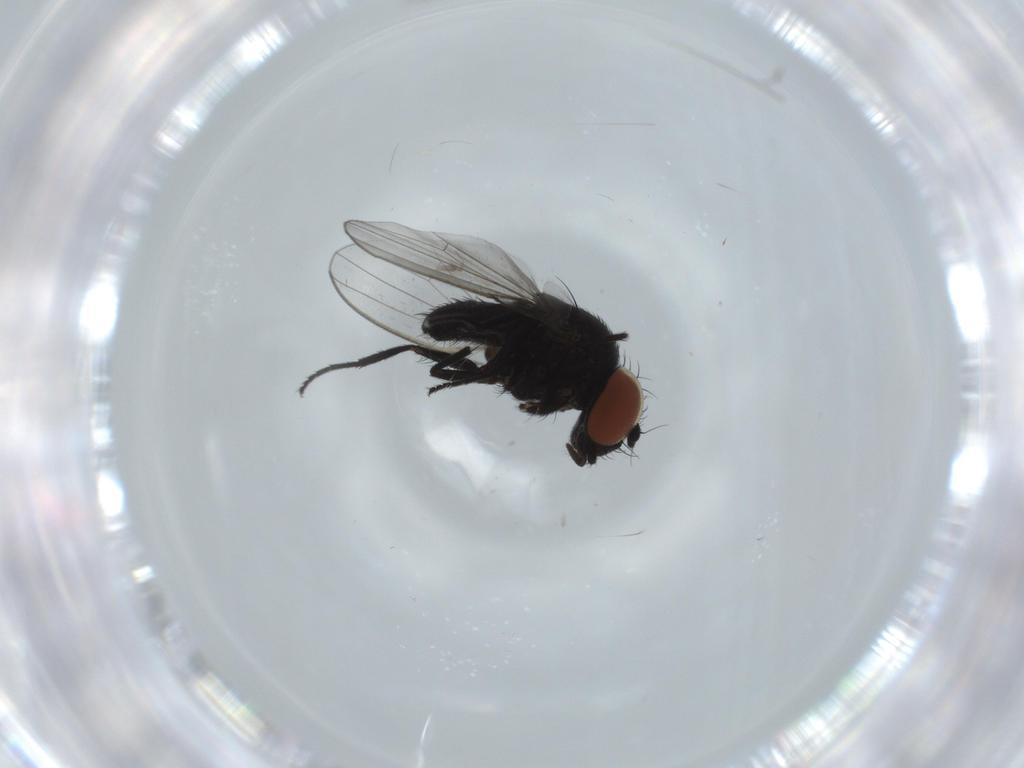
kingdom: Animalia
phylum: Arthropoda
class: Insecta
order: Diptera
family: Milichiidae
